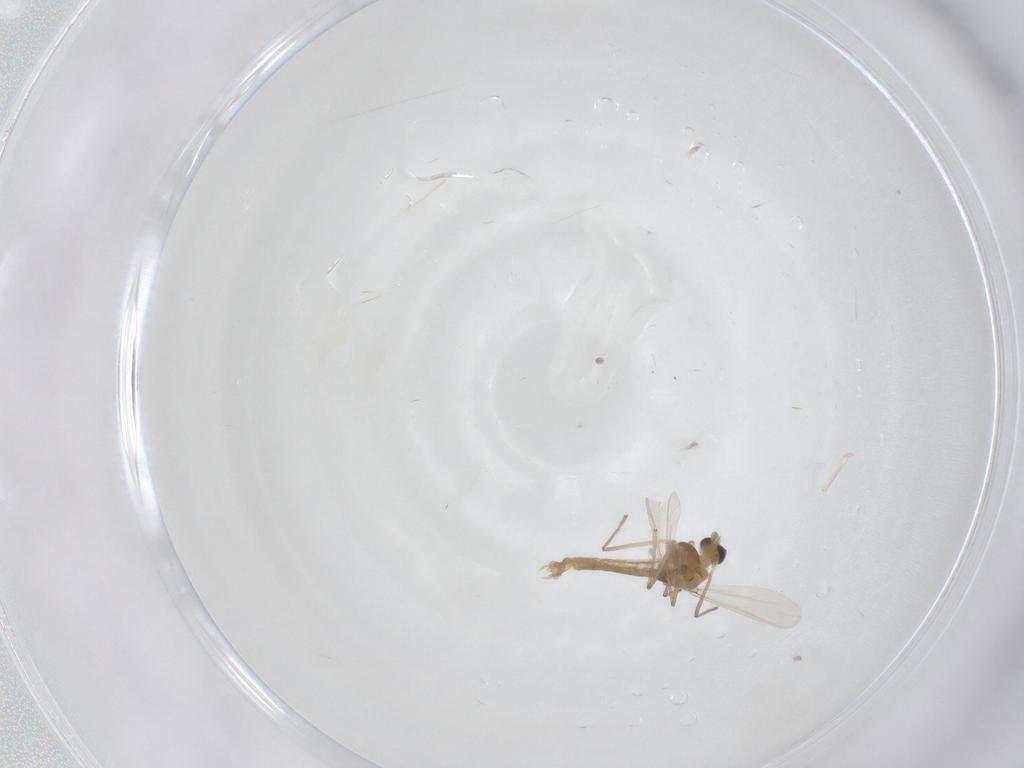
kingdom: Animalia
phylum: Arthropoda
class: Insecta
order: Diptera
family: Chironomidae
